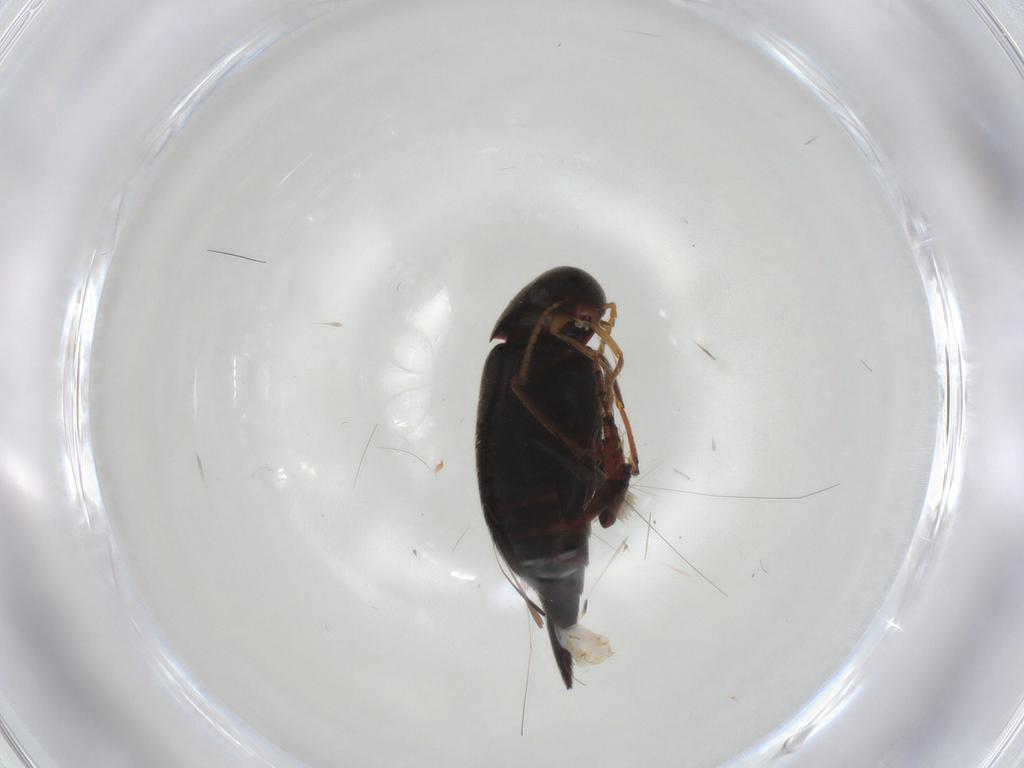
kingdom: Animalia
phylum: Arthropoda
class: Insecta
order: Coleoptera
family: Mordellidae
